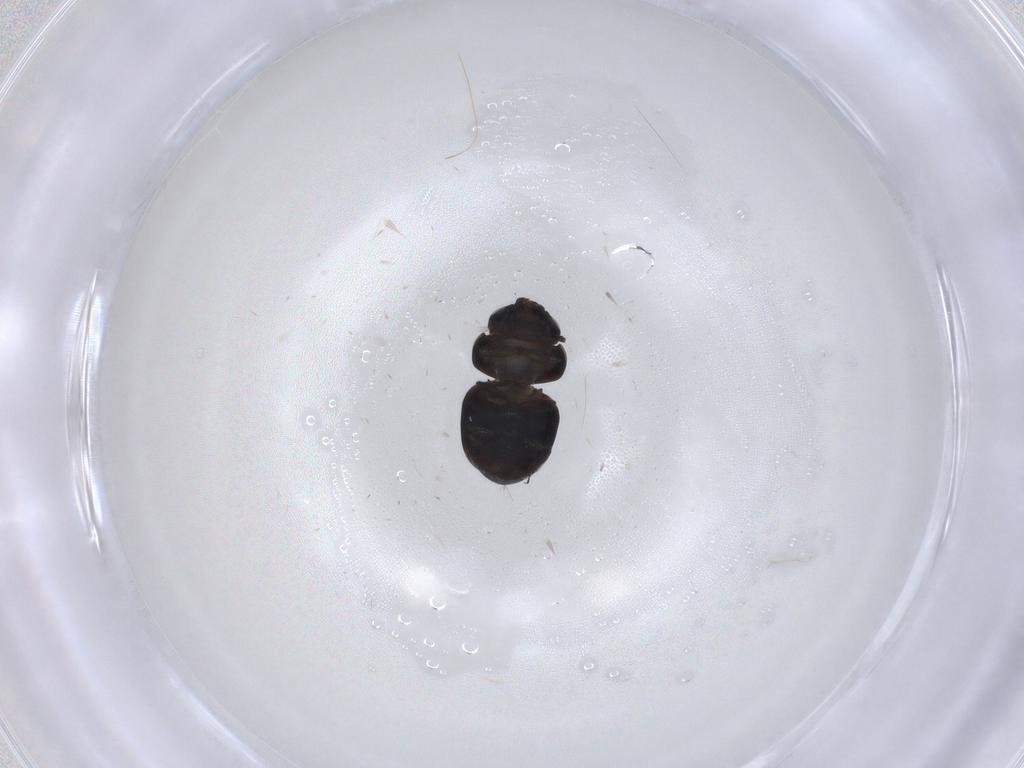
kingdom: Animalia
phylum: Arthropoda
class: Insecta
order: Coleoptera
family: Cybocephalidae
